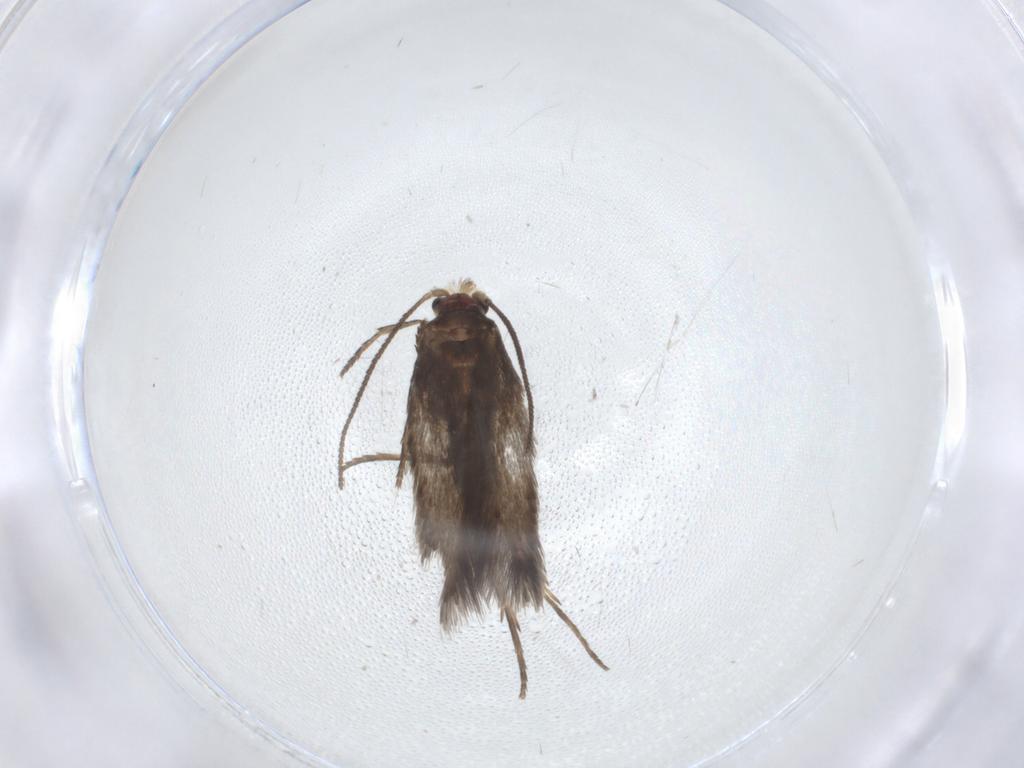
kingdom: Animalia
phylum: Arthropoda
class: Insecta
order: Lepidoptera
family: Nepticulidae
